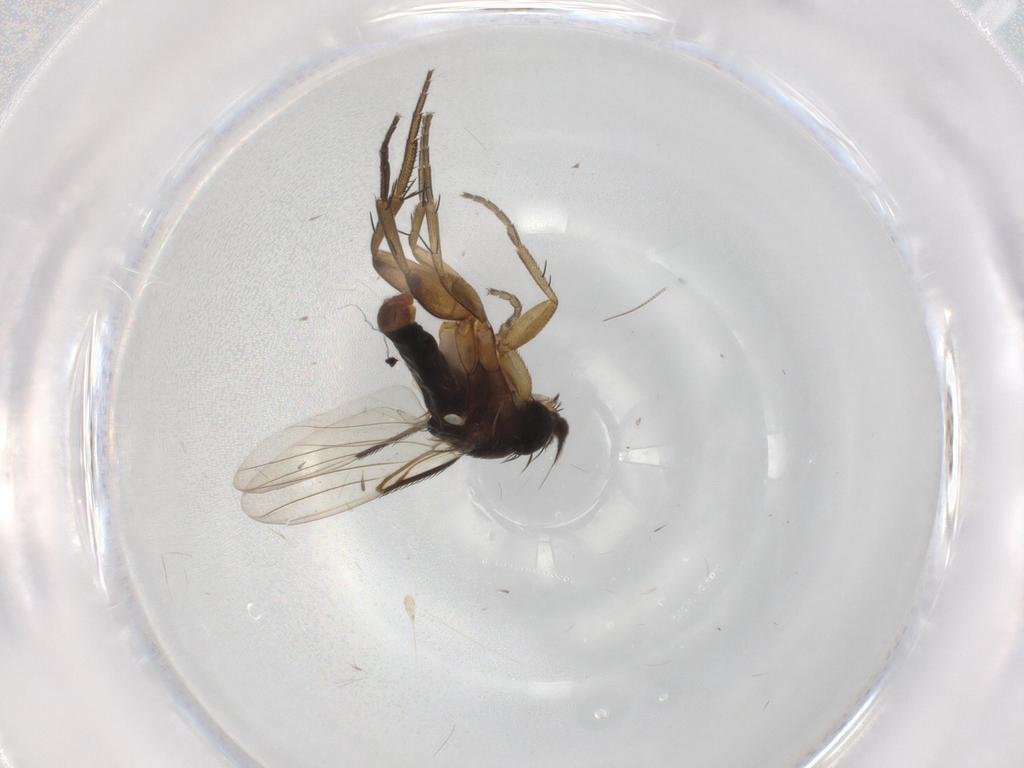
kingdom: Animalia
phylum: Arthropoda
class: Insecta
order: Diptera
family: Phoridae
